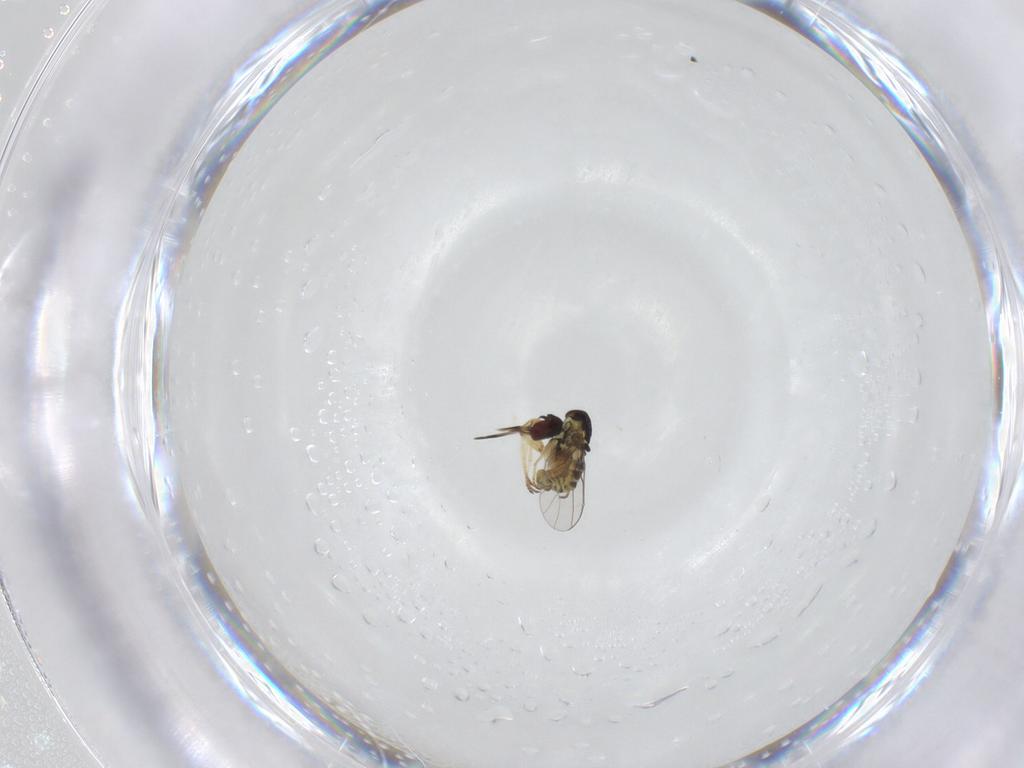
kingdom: Animalia
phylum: Arthropoda
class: Insecta
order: Diptera
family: Mythicomyiidae
